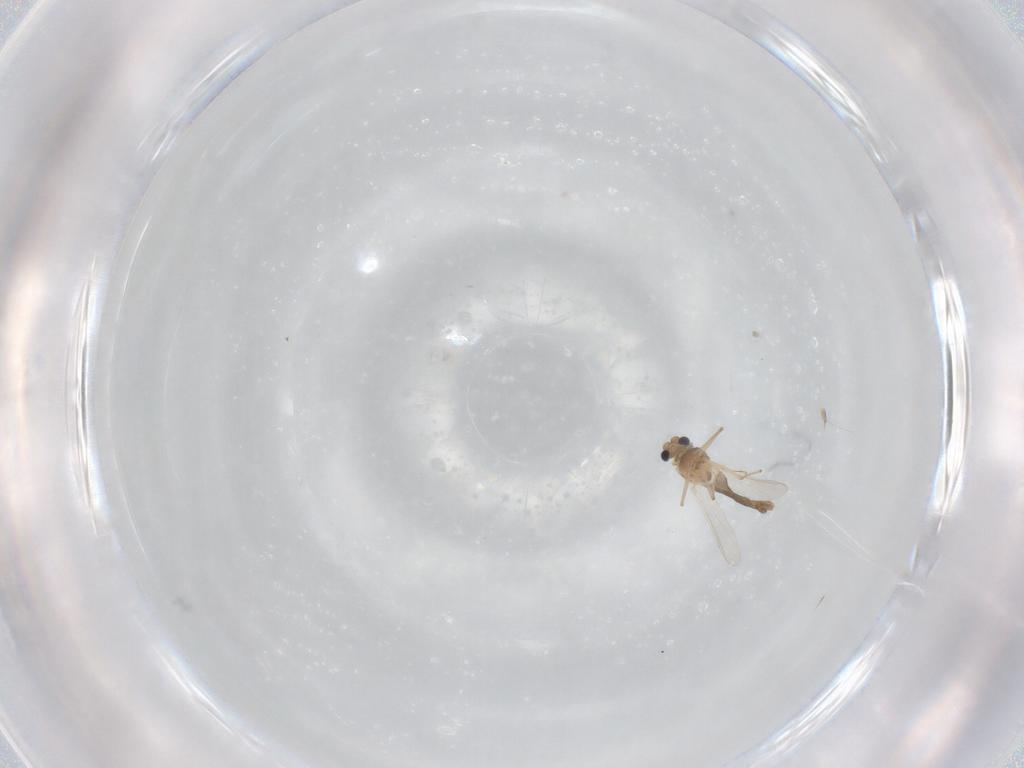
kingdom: Animalia
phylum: Arthropoda
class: Insecta
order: Diptera
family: Chironomidae
